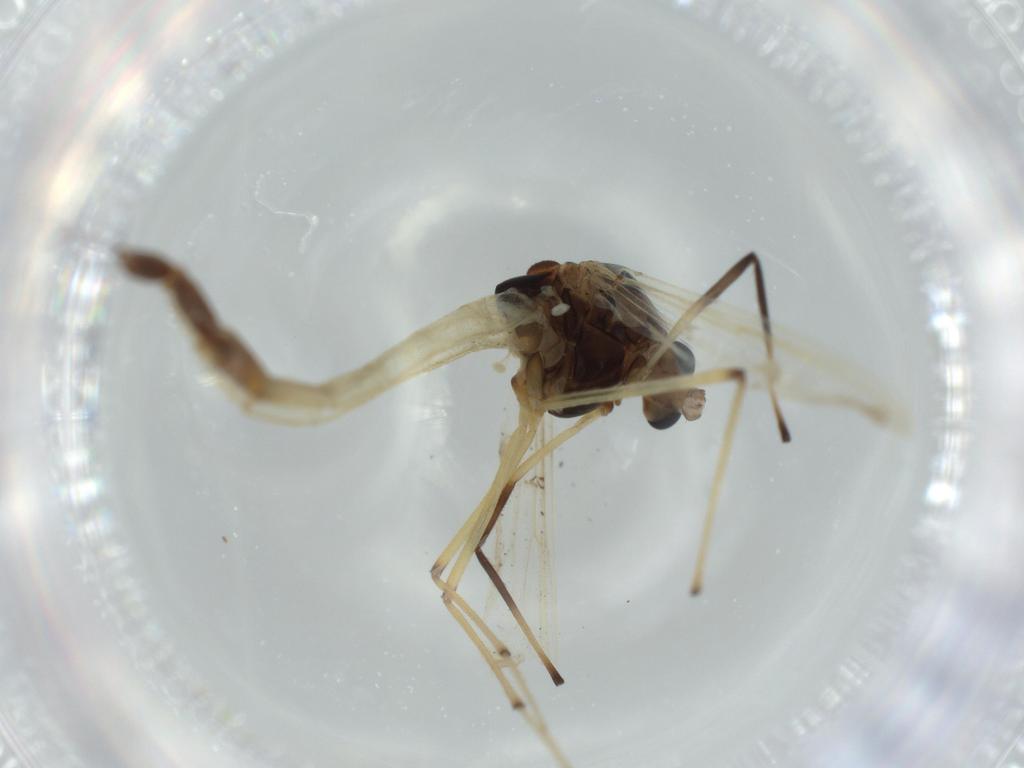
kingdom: Animalia
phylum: Arthropoda
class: Insecta
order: Diptera
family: Chironomidae
